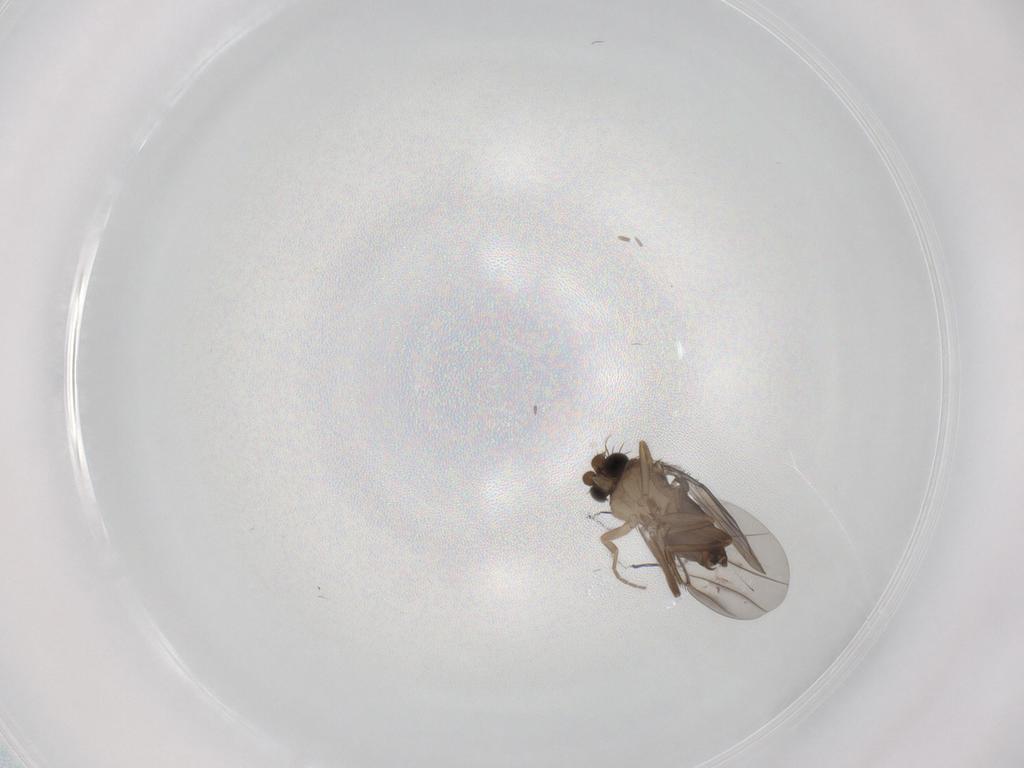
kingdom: Animalia
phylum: Arthropoda
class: Insecta
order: Diptera
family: Phoridae
